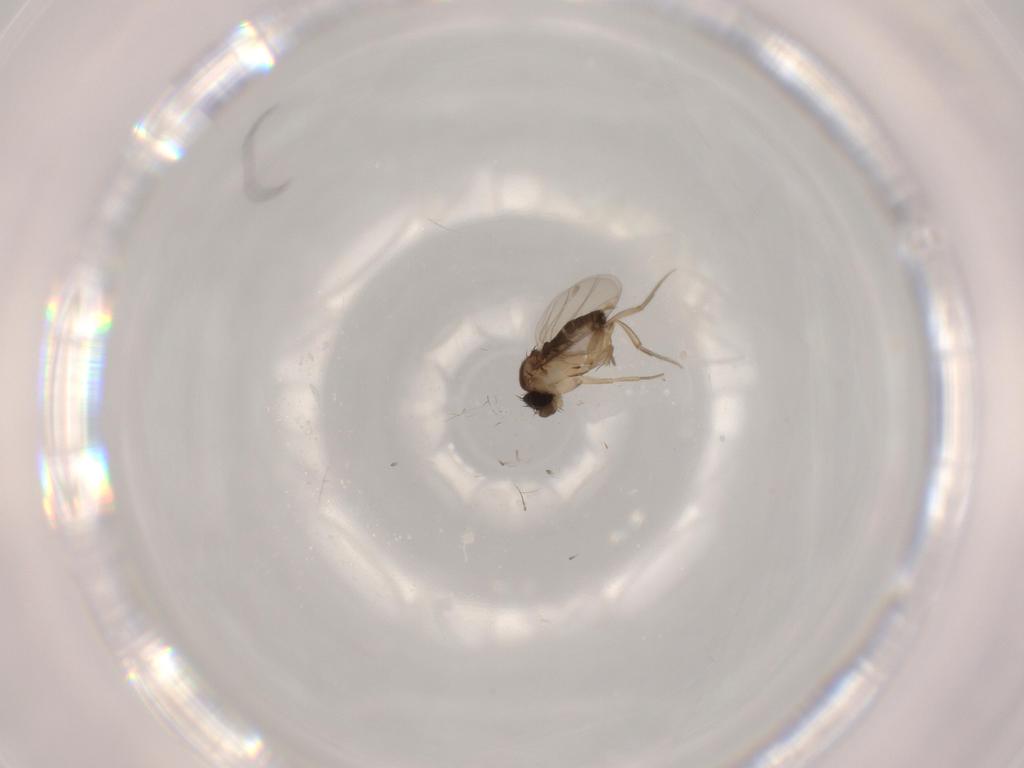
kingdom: Animalia
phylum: Arthropoda
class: Insecta
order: Diptera
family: Phoridae
